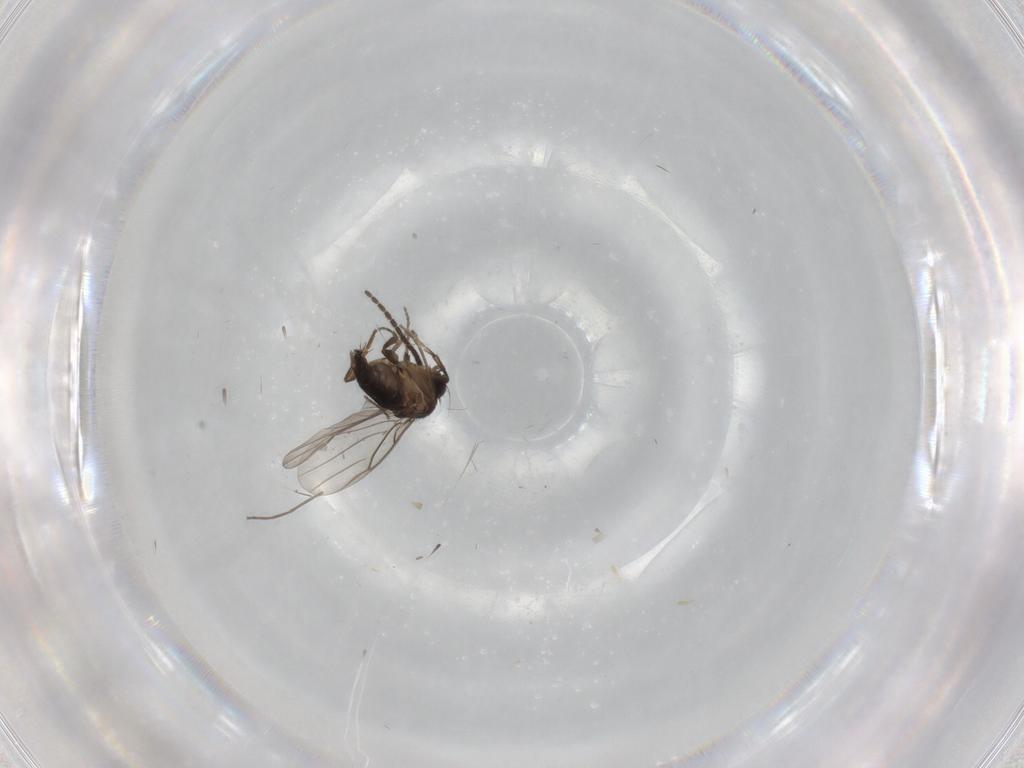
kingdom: Animalia
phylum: Arthropoda
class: Insecta
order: Diptera
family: Phoridae
